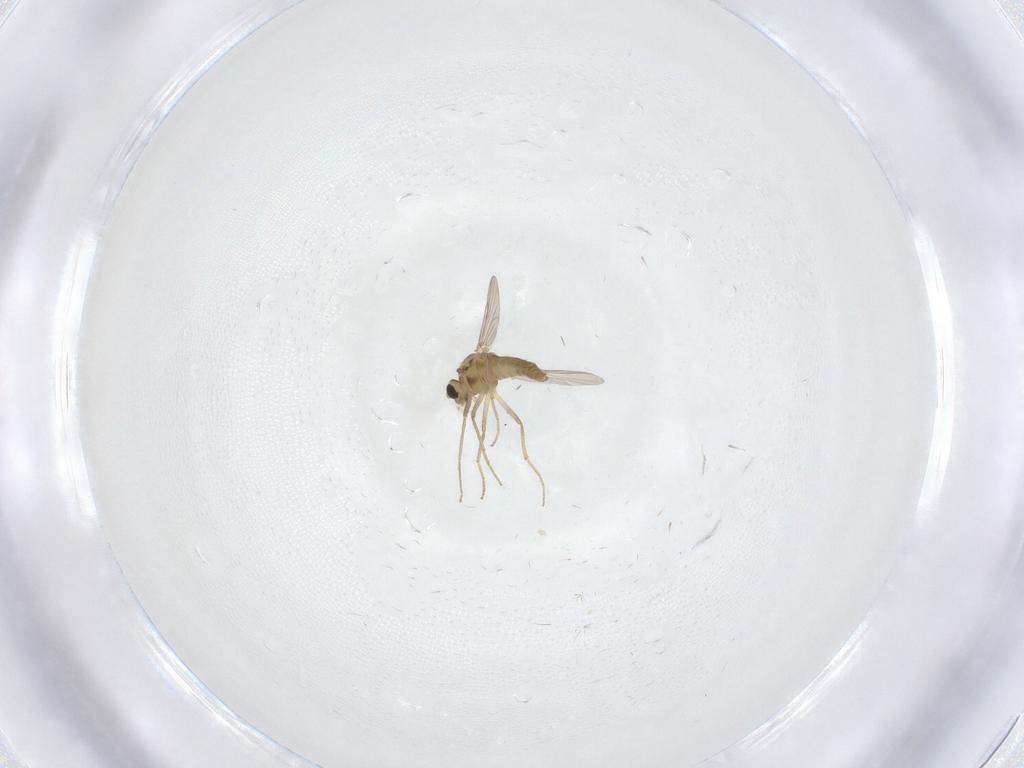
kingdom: Animalia
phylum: Arthropoda
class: Insecta
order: Diptera
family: Chironomidae
